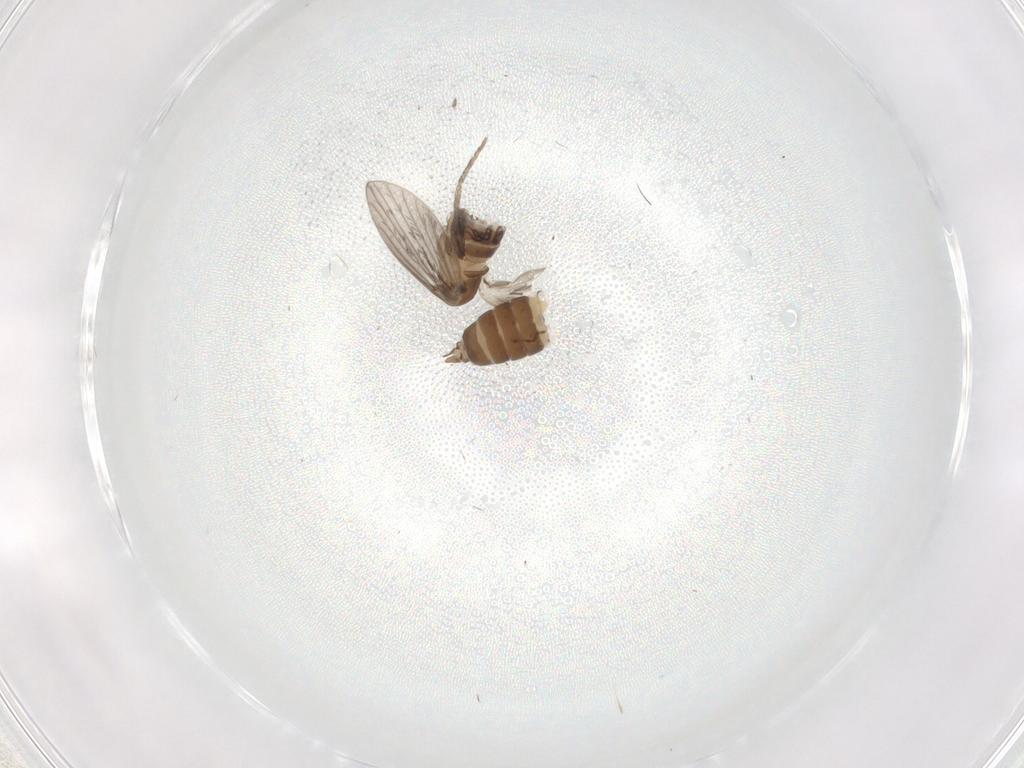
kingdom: Animalia
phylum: Arthropoda
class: Insecta
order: Diptera
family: Psychodidae
